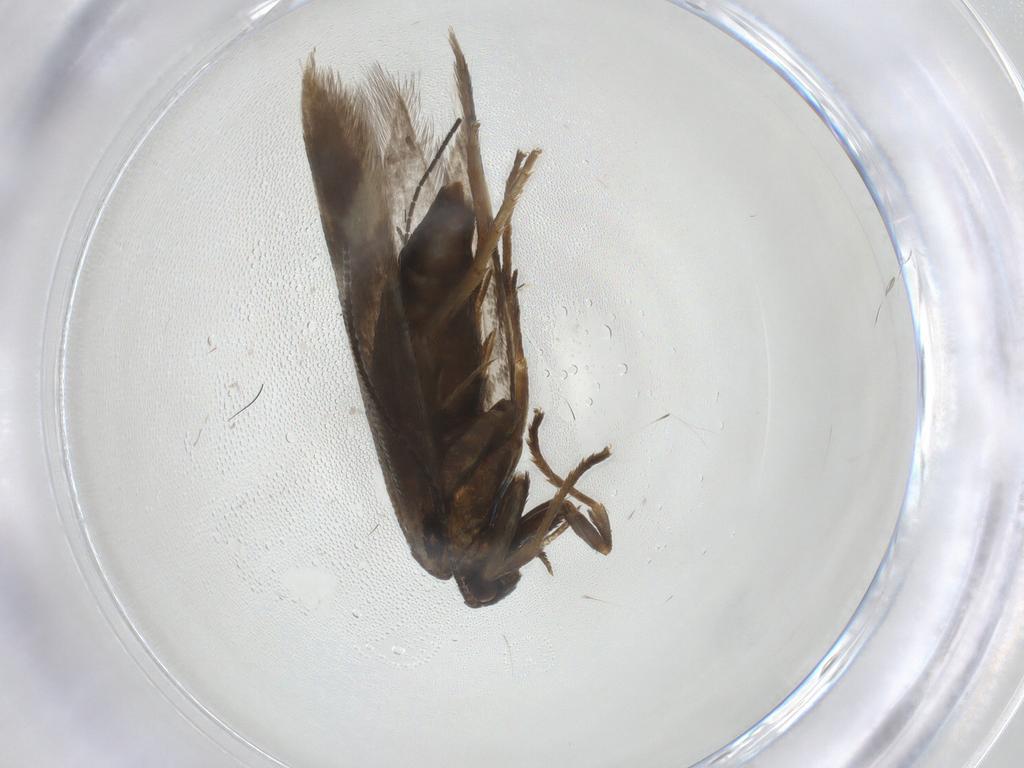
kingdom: Animalia
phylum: Arthropoda
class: Insecta
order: Lepidoptera
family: Argyresthiidae
